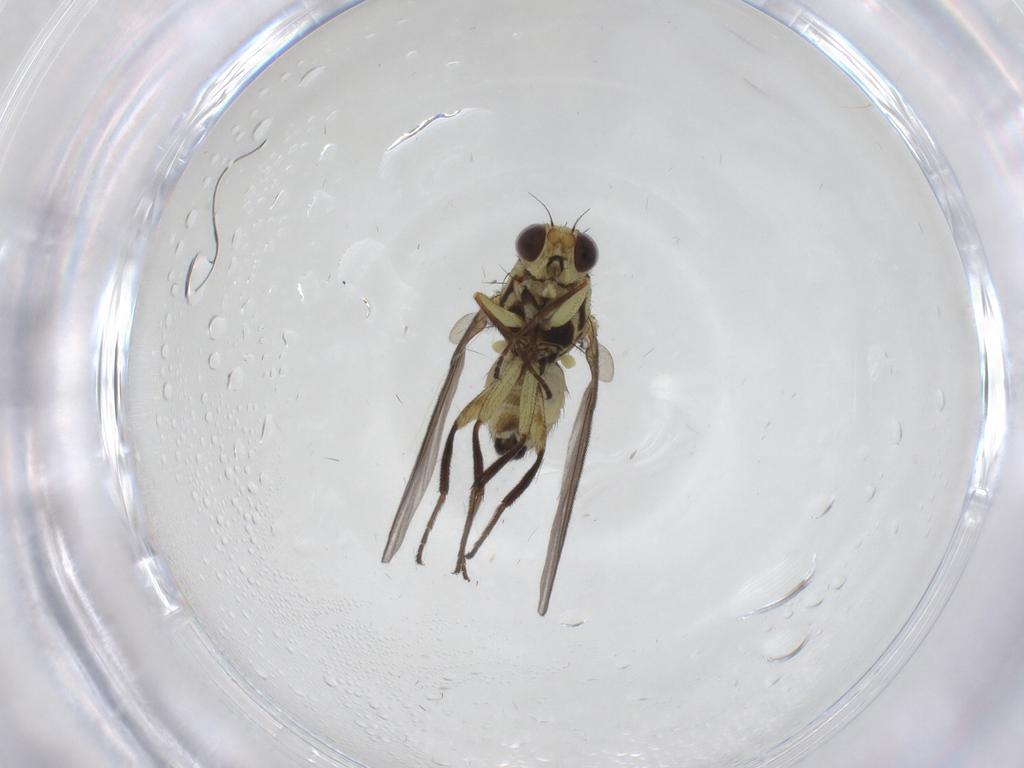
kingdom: Animalia
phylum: Arthropoda
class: Insecta
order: Diptera
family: Agromyzidae
